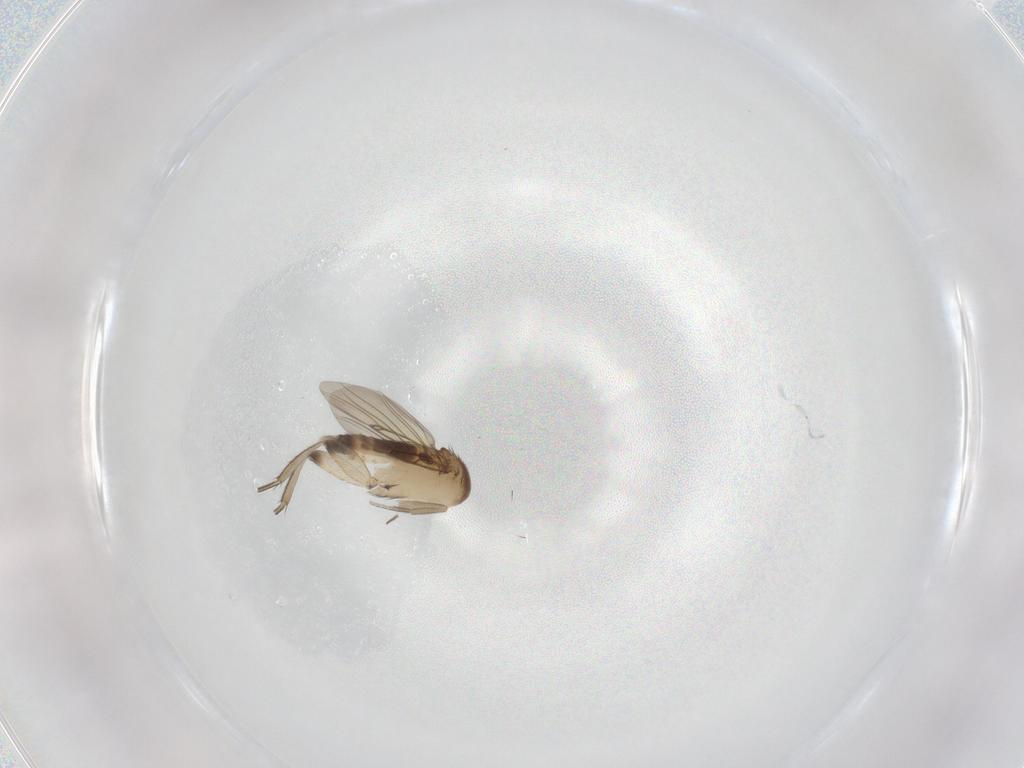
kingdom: Animalia
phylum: Arthropoda
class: Insecta
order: Diptera
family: Phoridae
